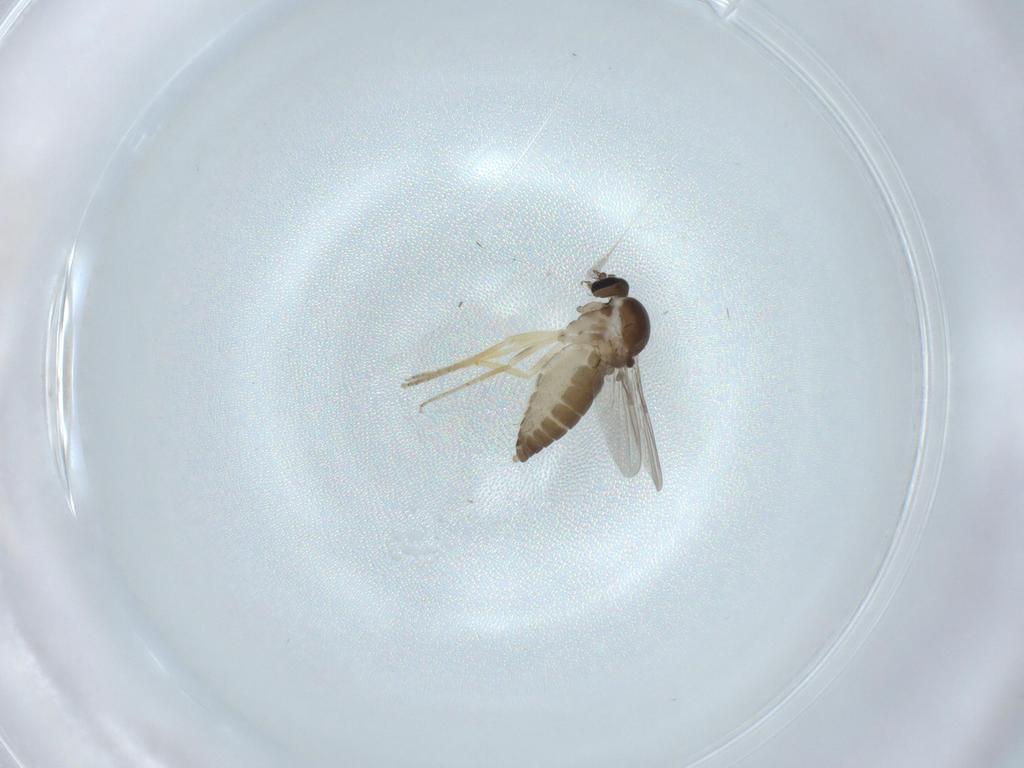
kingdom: Animalia
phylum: Arthropoda
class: Insecta
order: Diptera
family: Ceratopogonidae
